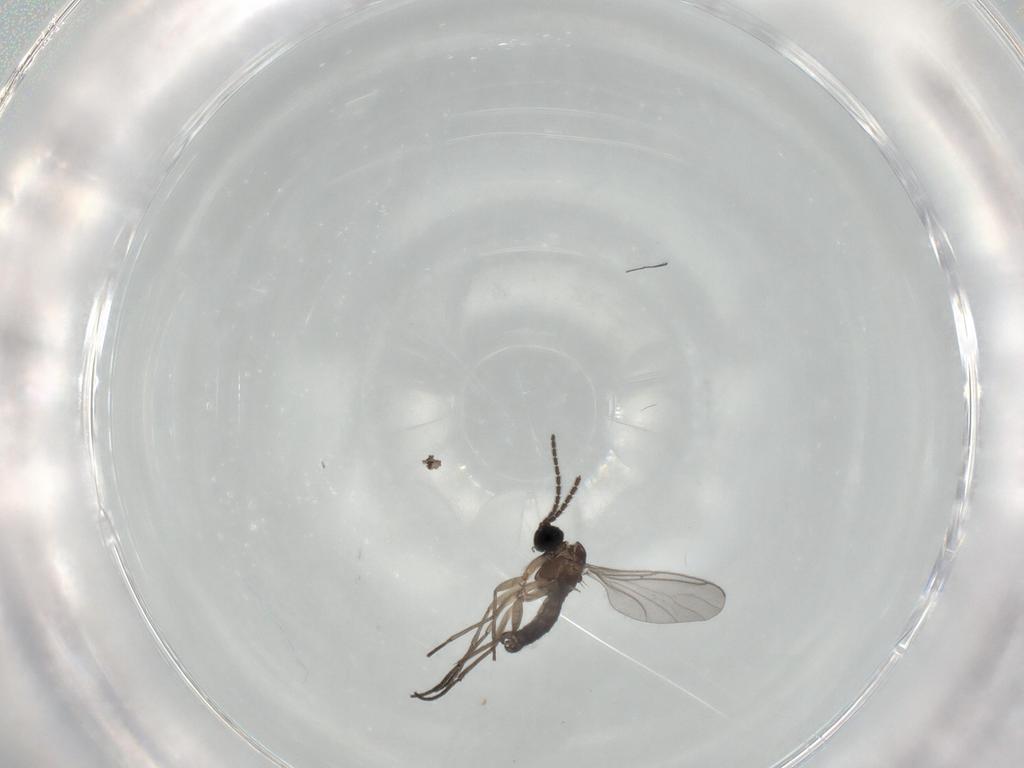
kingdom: Animalia
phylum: Arthropoda
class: Insecta
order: Diptera
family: Sciaridae
